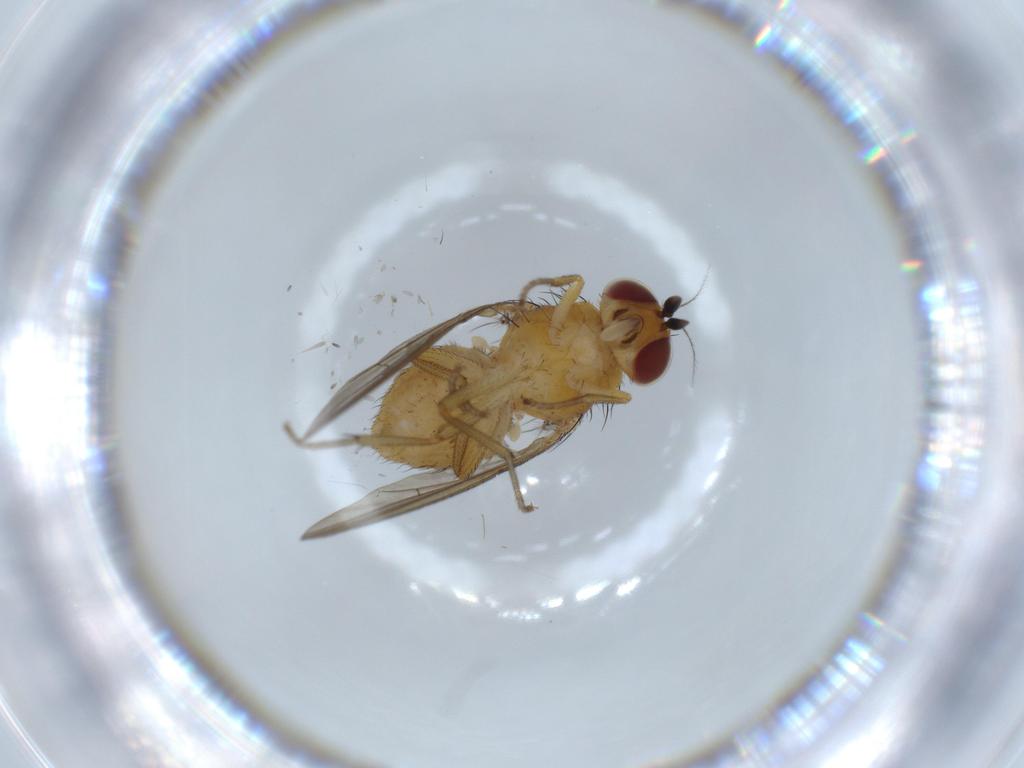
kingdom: Animalia
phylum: Arthropoda
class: Insecta
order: Diptera
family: Lauxaniidae
